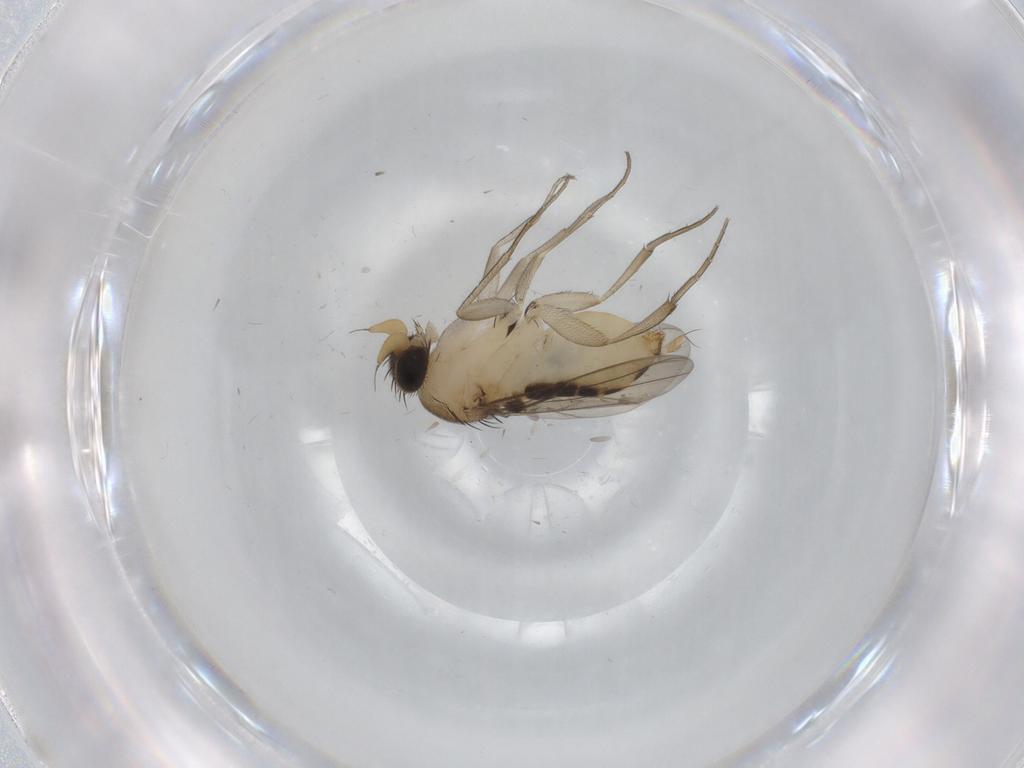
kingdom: Animalia
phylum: Arthropoda
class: Insecta
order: Diptera
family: Phoridae
